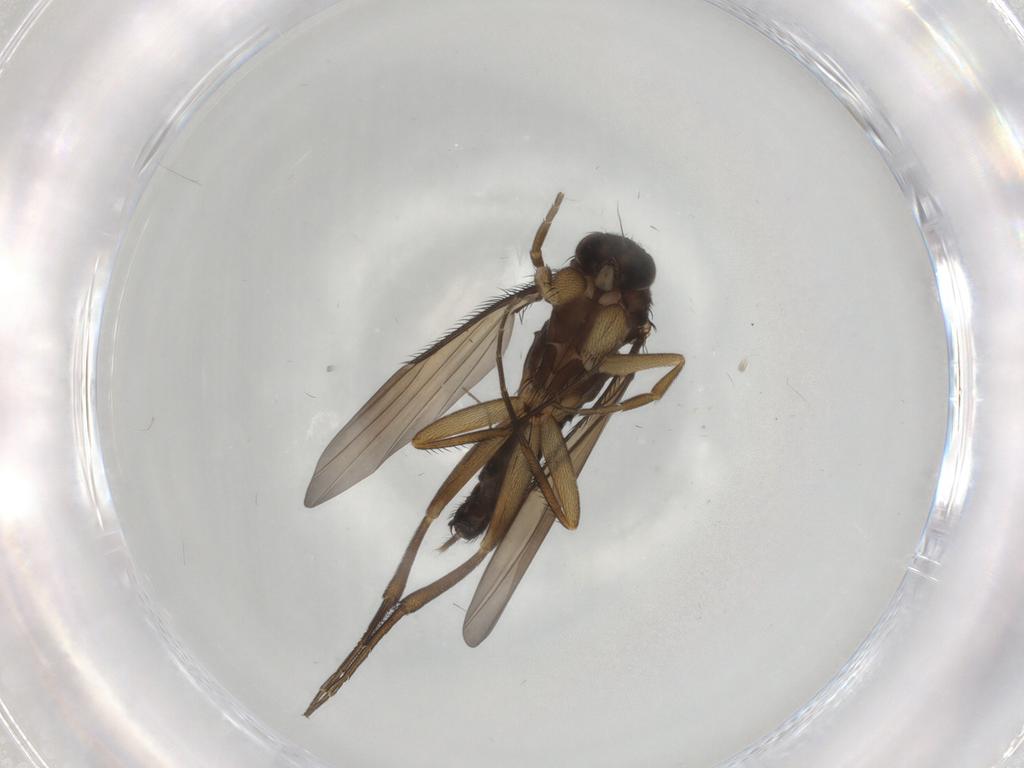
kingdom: Animalia
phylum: Arthropoda
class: Insecta
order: Diptera
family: Phoridae
